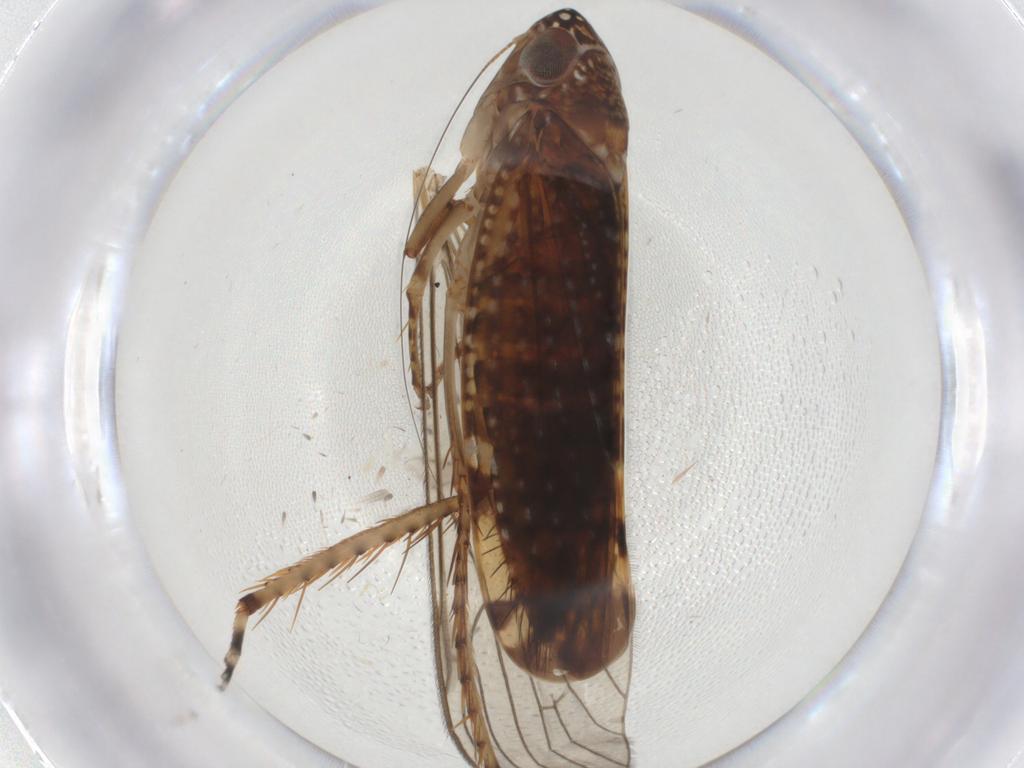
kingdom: Animalia
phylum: Arthropoda
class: Insecta
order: Hemiptera
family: Cicadellidae
